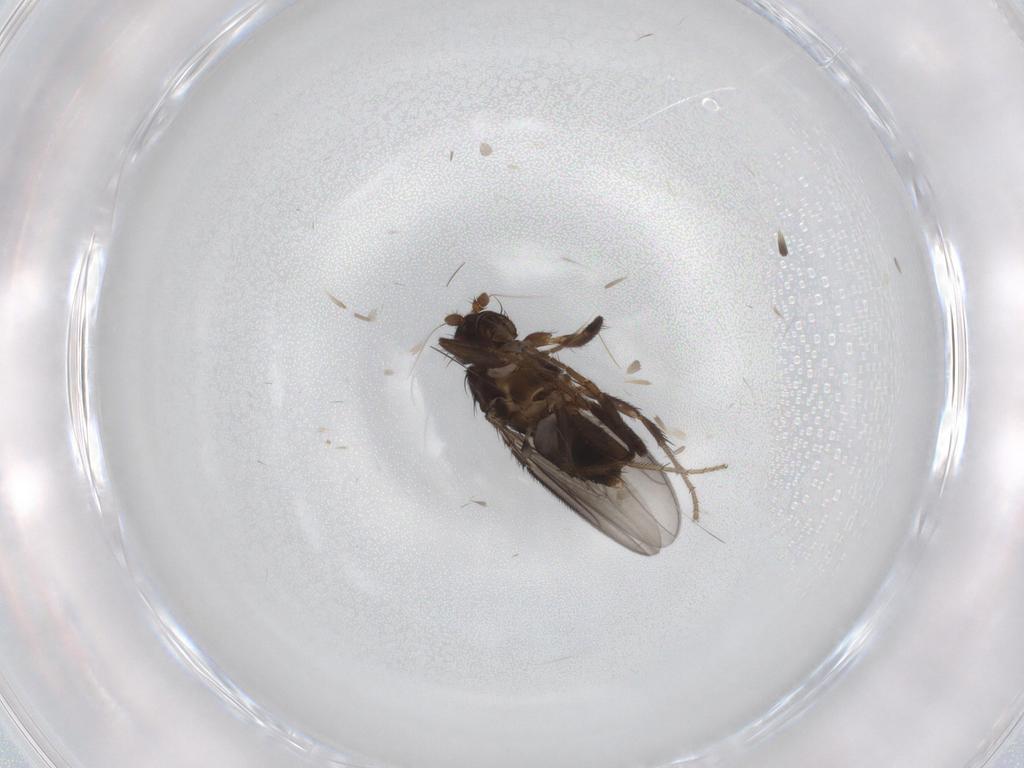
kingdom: Animalia
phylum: Arthropoda
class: Insecta
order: Diptera
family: Sphaeroceridae
